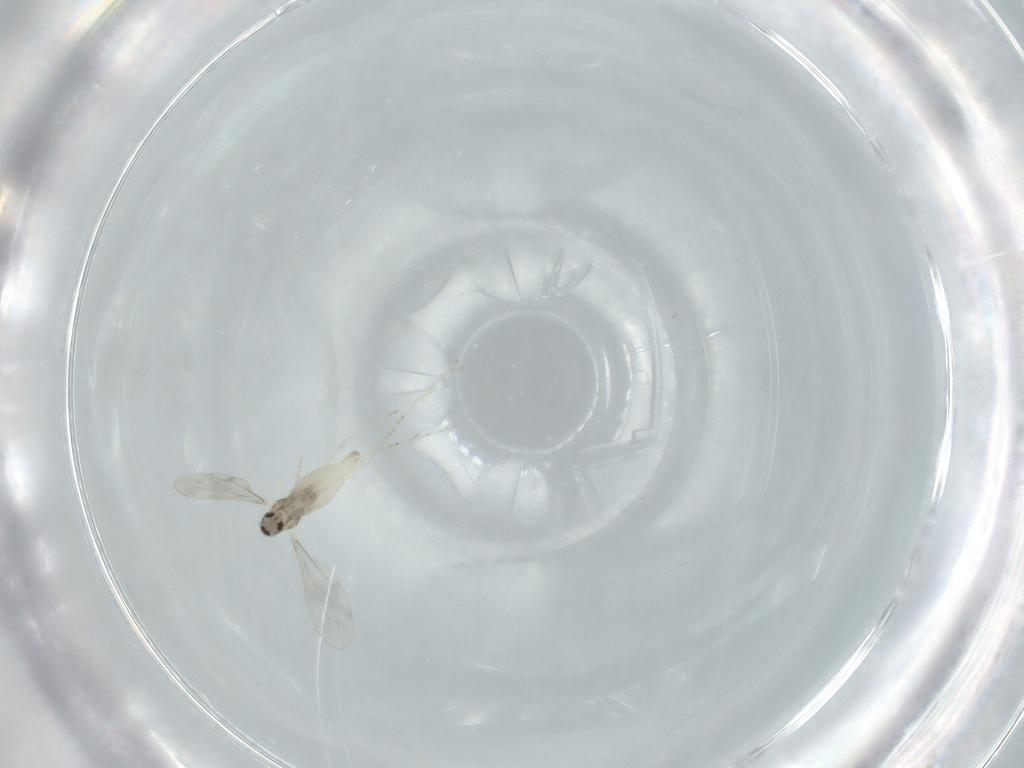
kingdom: Animalia
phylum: Arthropoda
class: Insecta
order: Diptera
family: Cecidomyiidae
